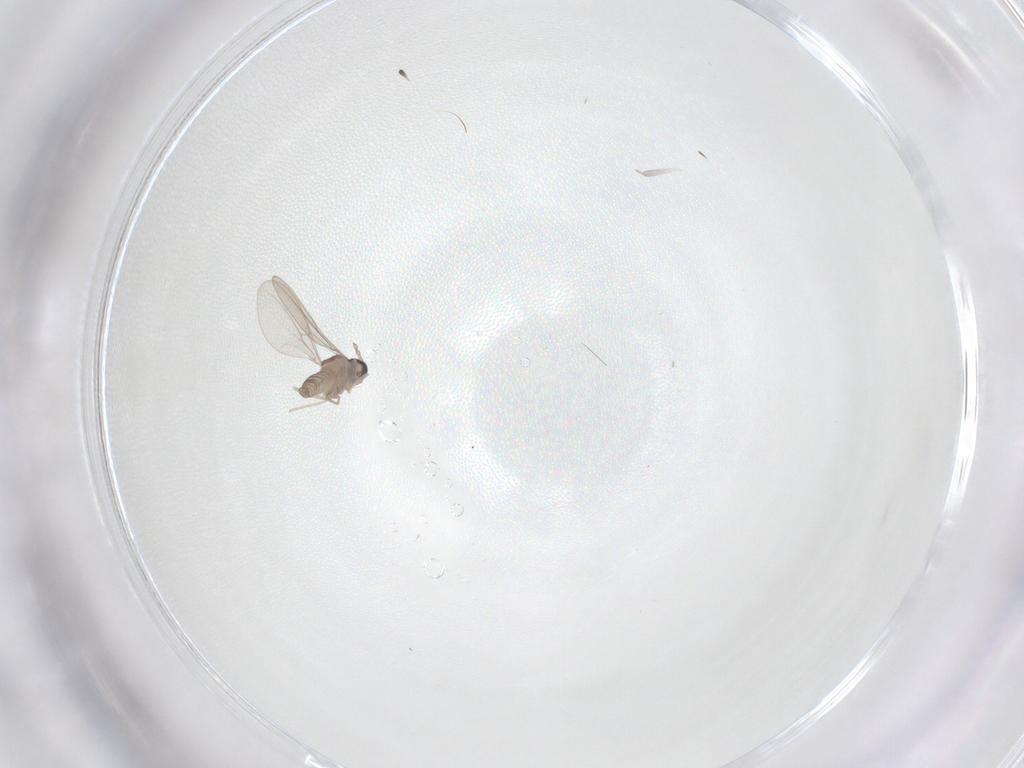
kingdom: Animalia
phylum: Arthropoda
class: Insecta
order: Diptera
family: Cecidomyiidae
